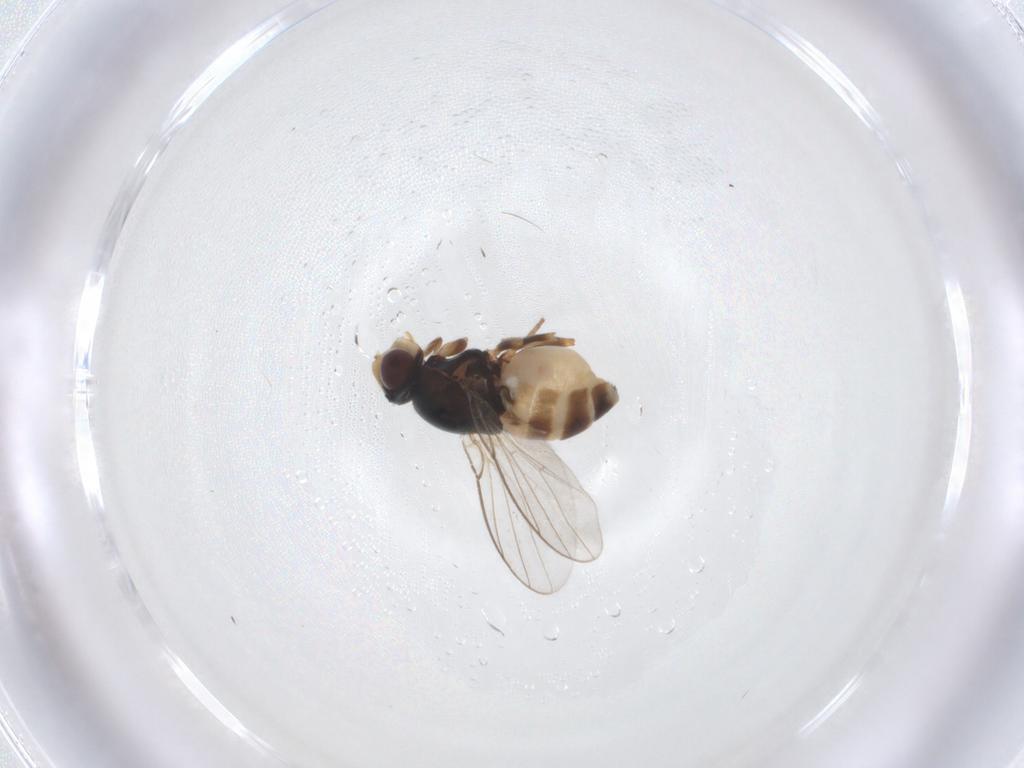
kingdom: Animalia
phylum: Arthropoda
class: Insecta
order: Diptera
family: Chloropidae
